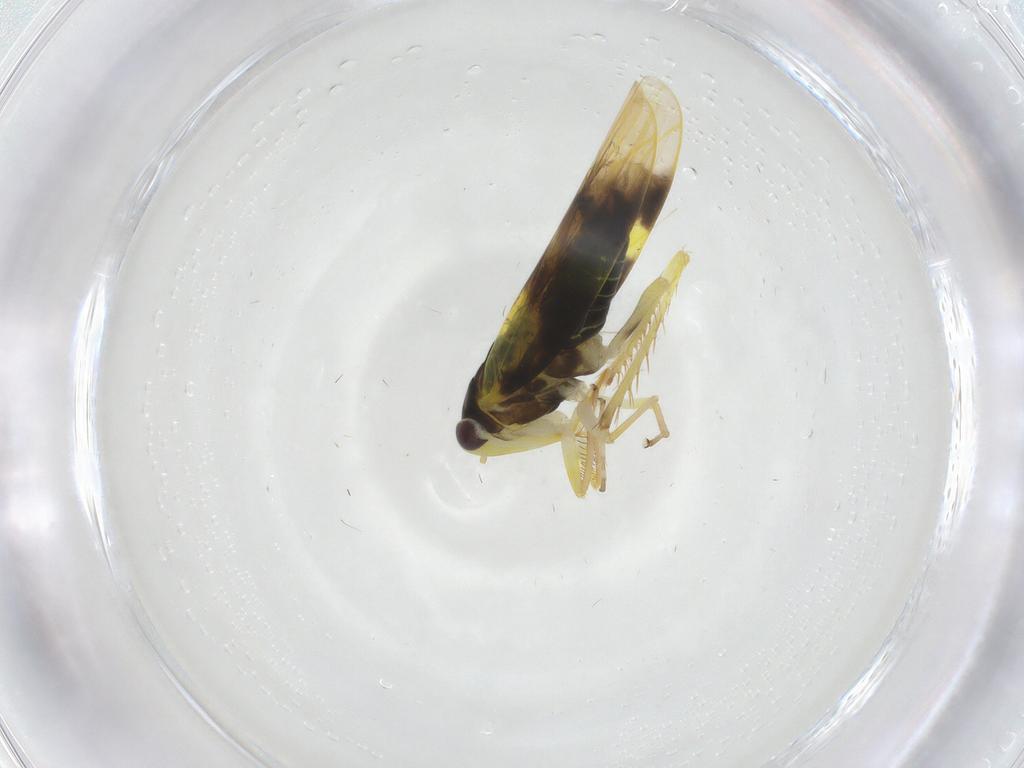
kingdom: Animalia
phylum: Arthropoda
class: Insecta
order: Hemiptera
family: Cicadellidae
